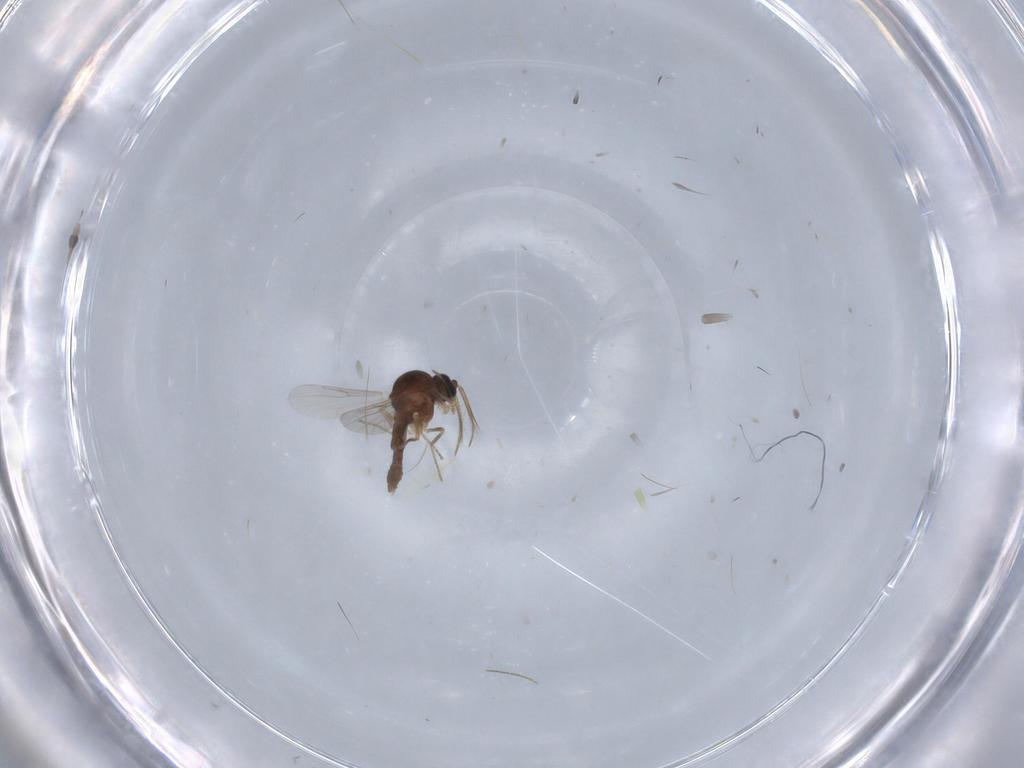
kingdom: Animalia
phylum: Arthropoda
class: Insecta
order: Diptera
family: Ceratopogonidae
